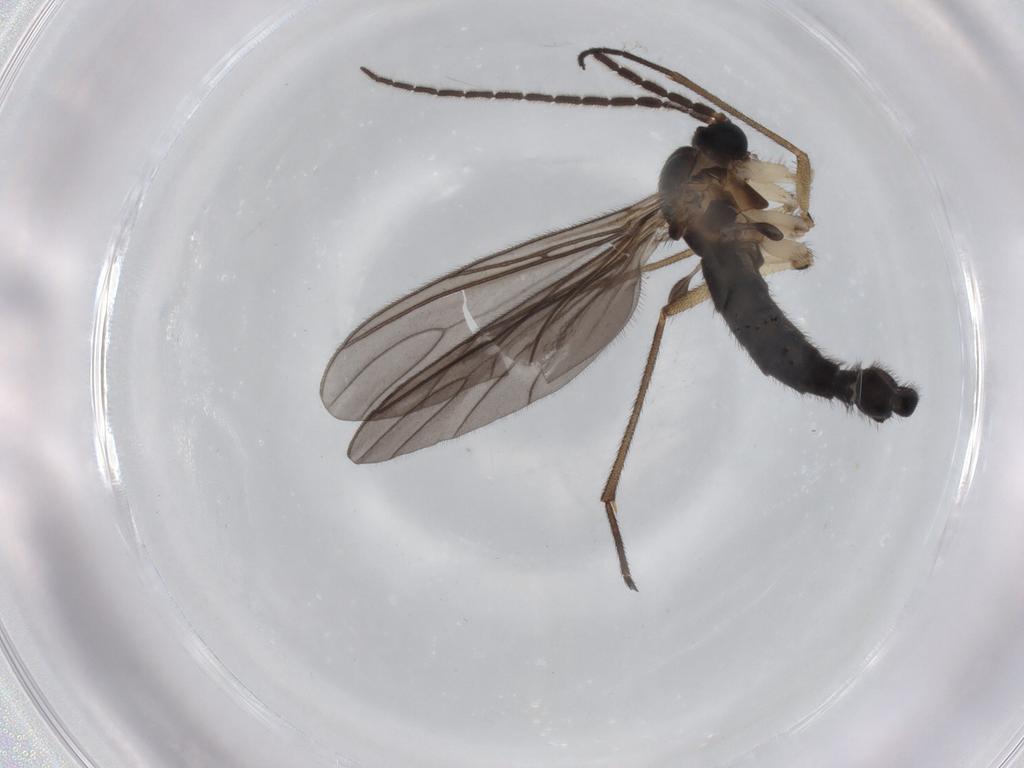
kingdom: Animalia
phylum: Arthropoda
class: Insecta
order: Diptera
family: Sciaridae
